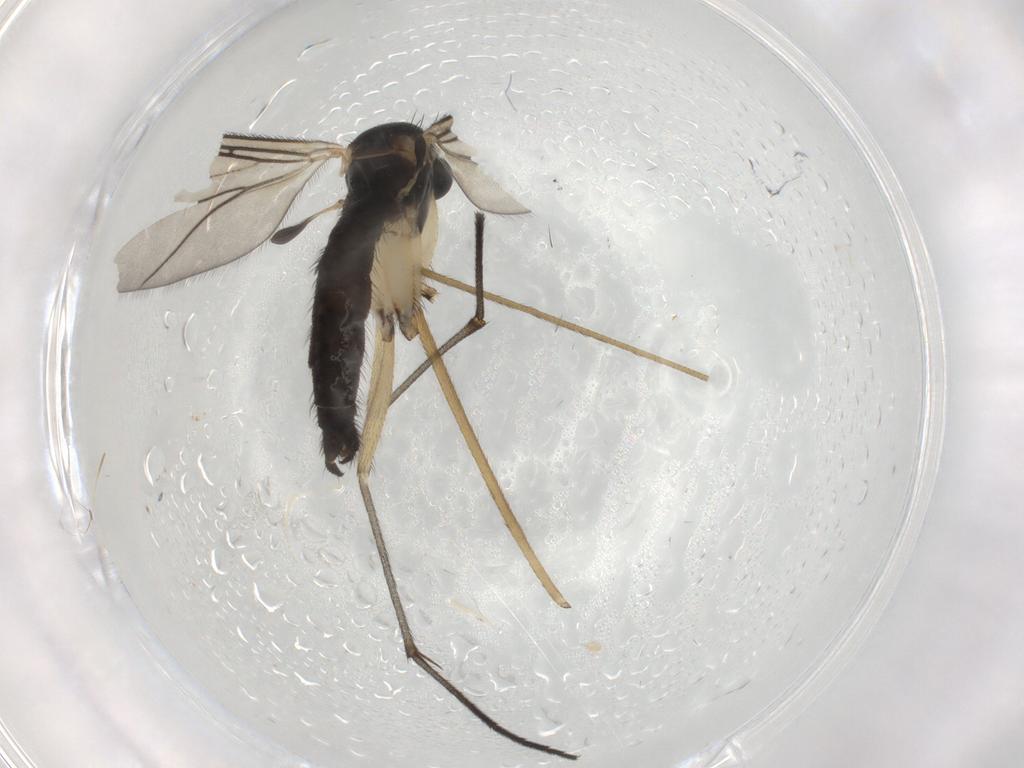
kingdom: Animalia
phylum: Arthropoda
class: Insecta
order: Diptera
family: Sciaridae
